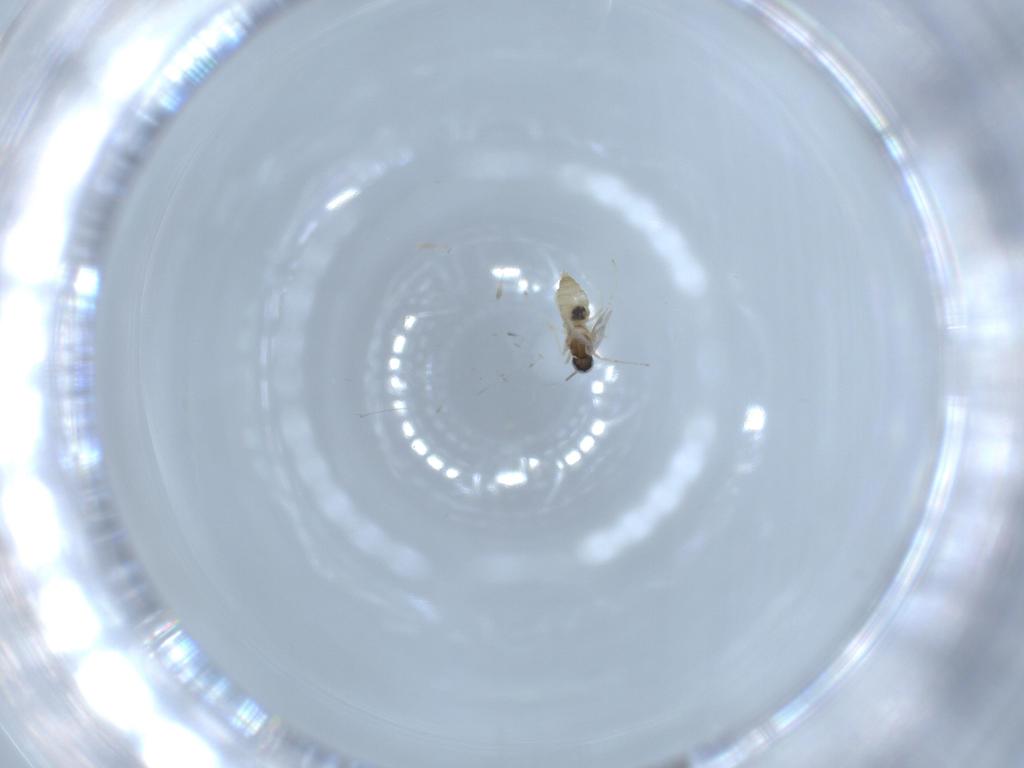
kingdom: Animalia
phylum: Arthropoda
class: Insecta
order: Diptera
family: Cecidomyiidae
